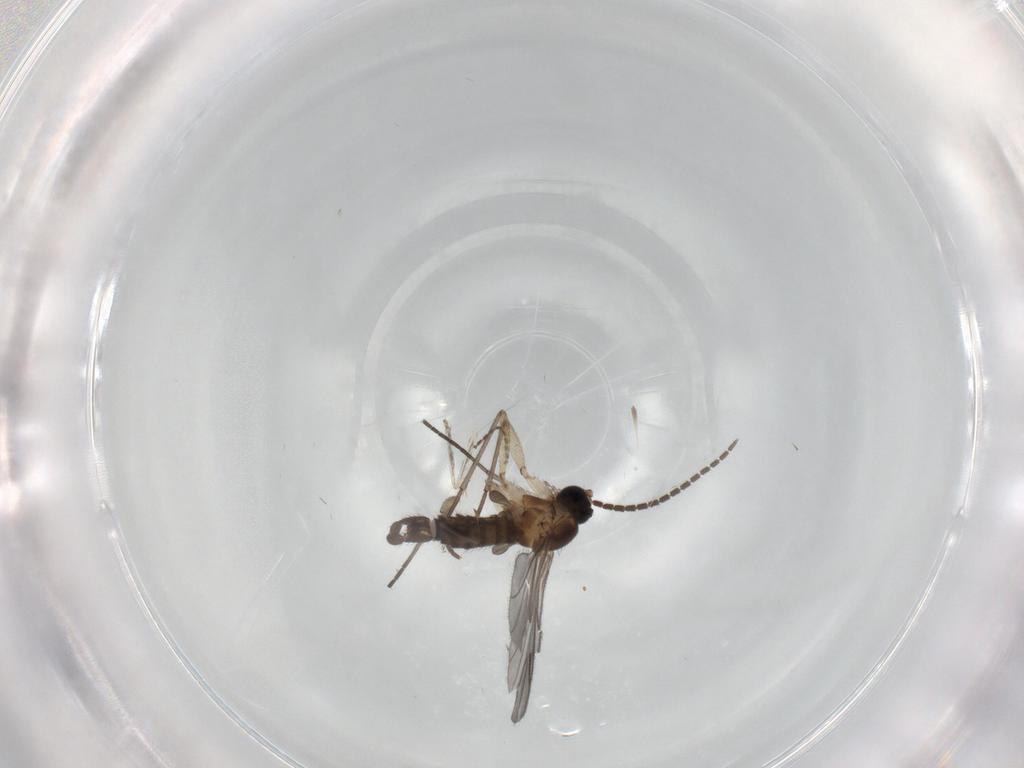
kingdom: Animalia
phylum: Arthropoda
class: Insecta
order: Diptera
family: Sciaridae
